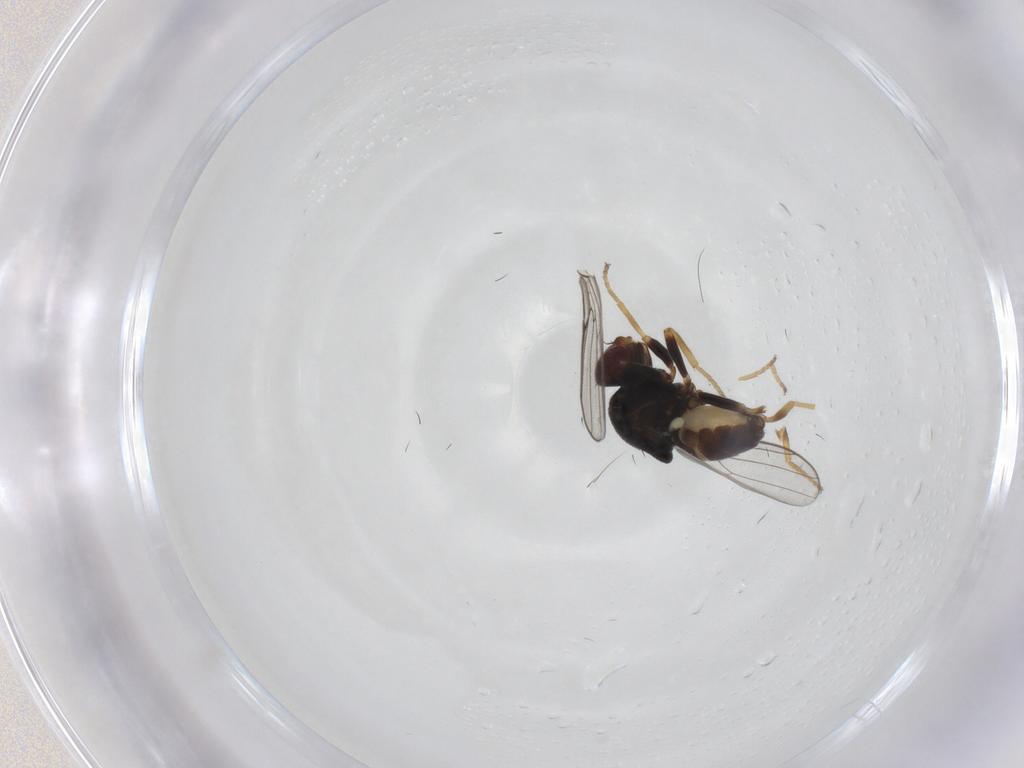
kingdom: Animalia
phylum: Arthropoda
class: Insecta
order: Diptera
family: Chloropidae
